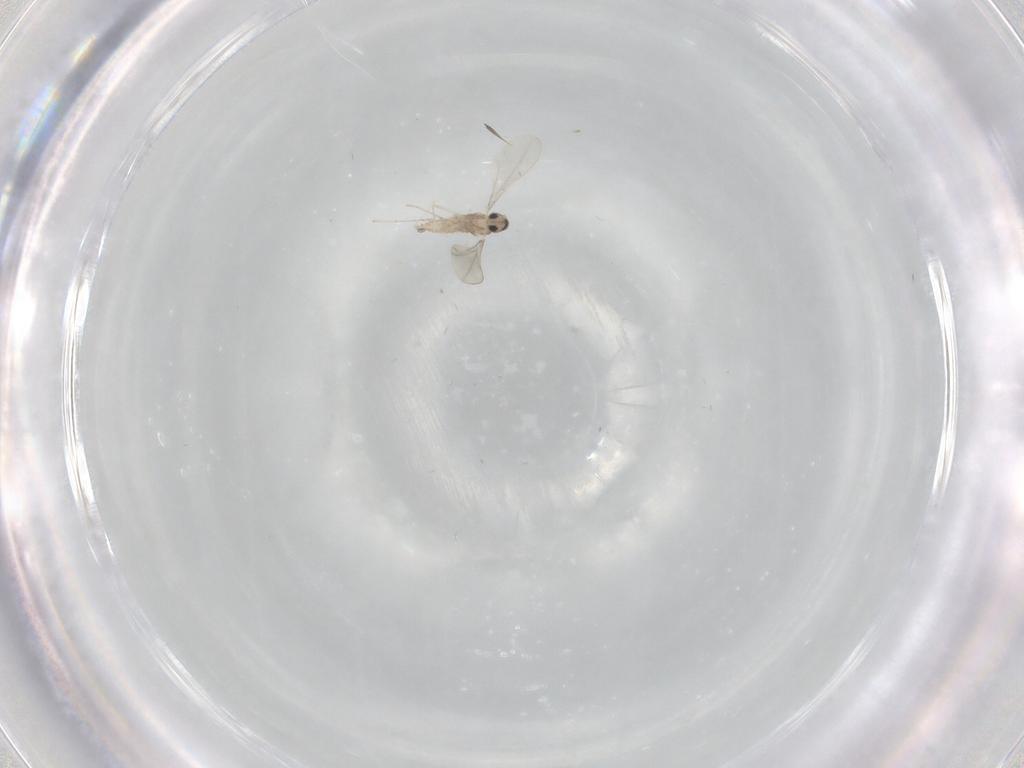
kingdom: Animalia
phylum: Arthropoda
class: Insecta
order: Diptera
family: Cecidomyiidae
